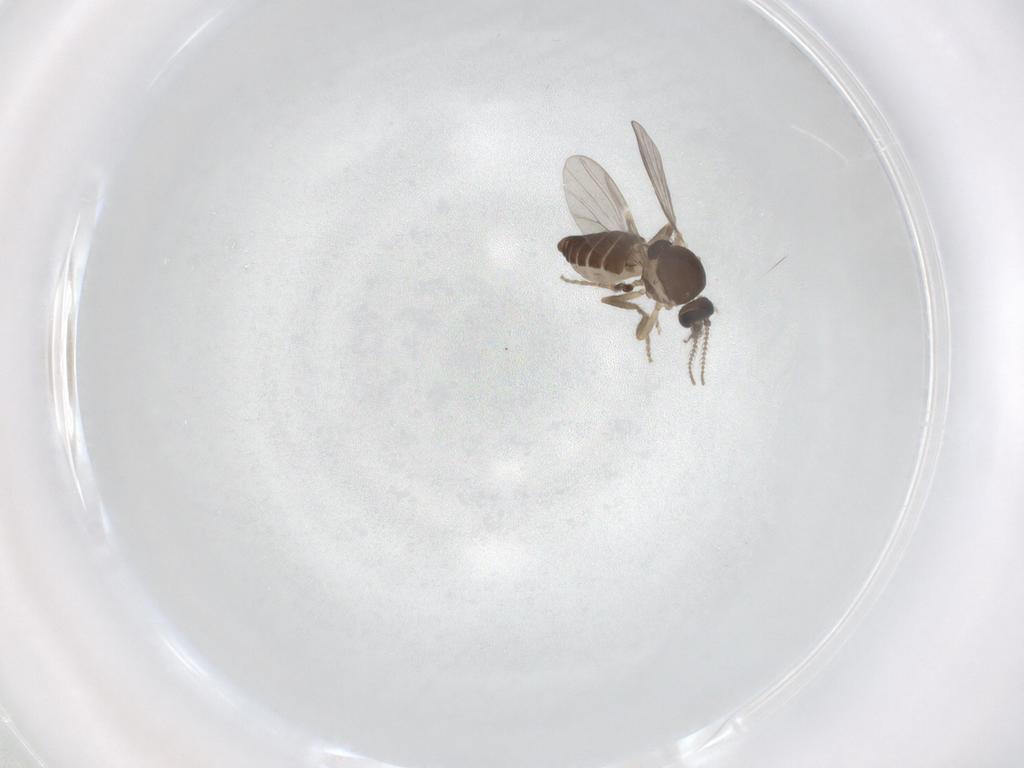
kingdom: Animalia
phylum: Arthropoda
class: Insecta
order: Diptera
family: Ceratopogonidae
